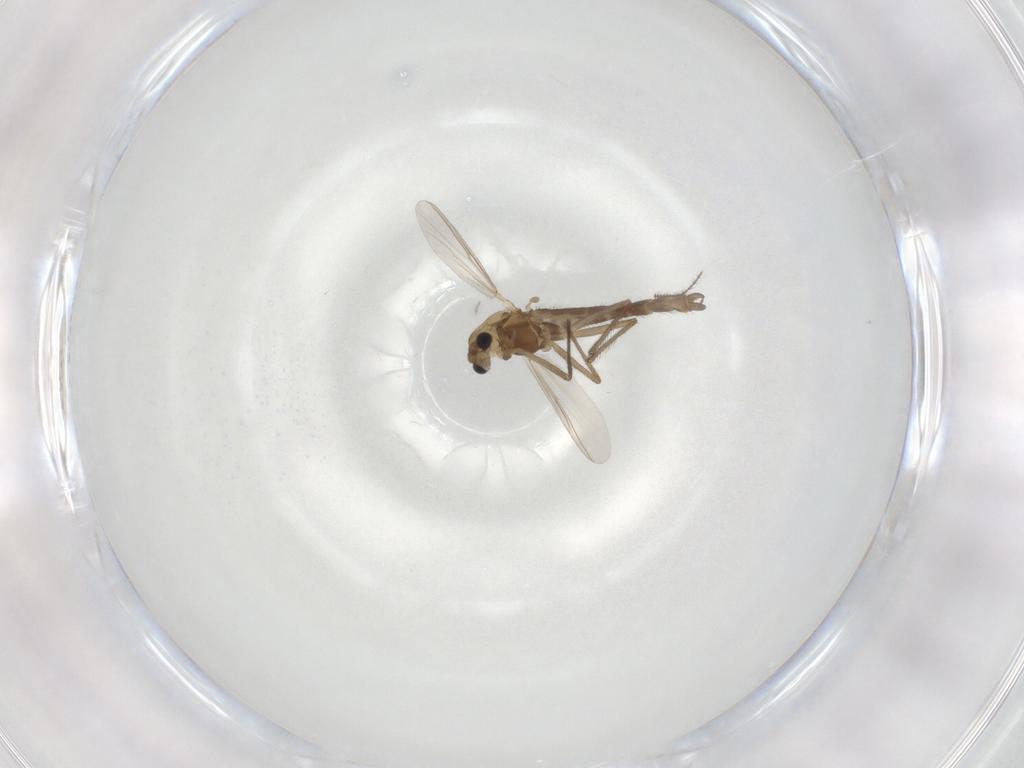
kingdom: Animalia
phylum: Arthropoda
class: Insecta
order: Diptera
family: Chironomidae
